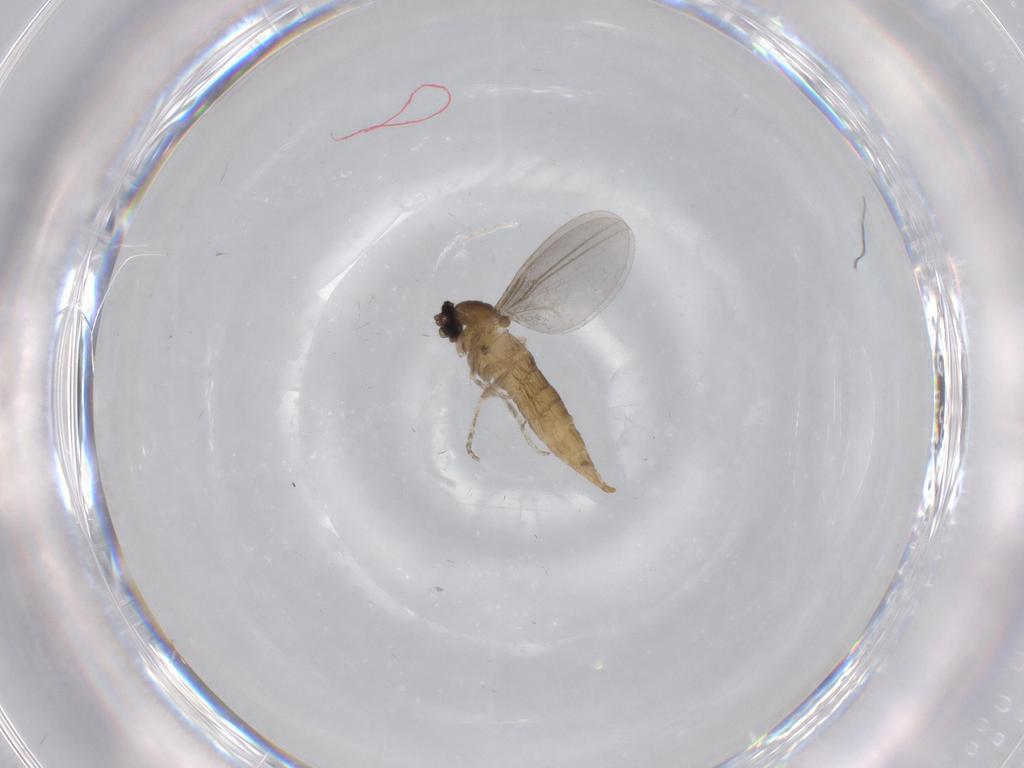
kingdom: Animalia
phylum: Arthropoda
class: Insecta
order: Diptera
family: Cecidomyiidae
